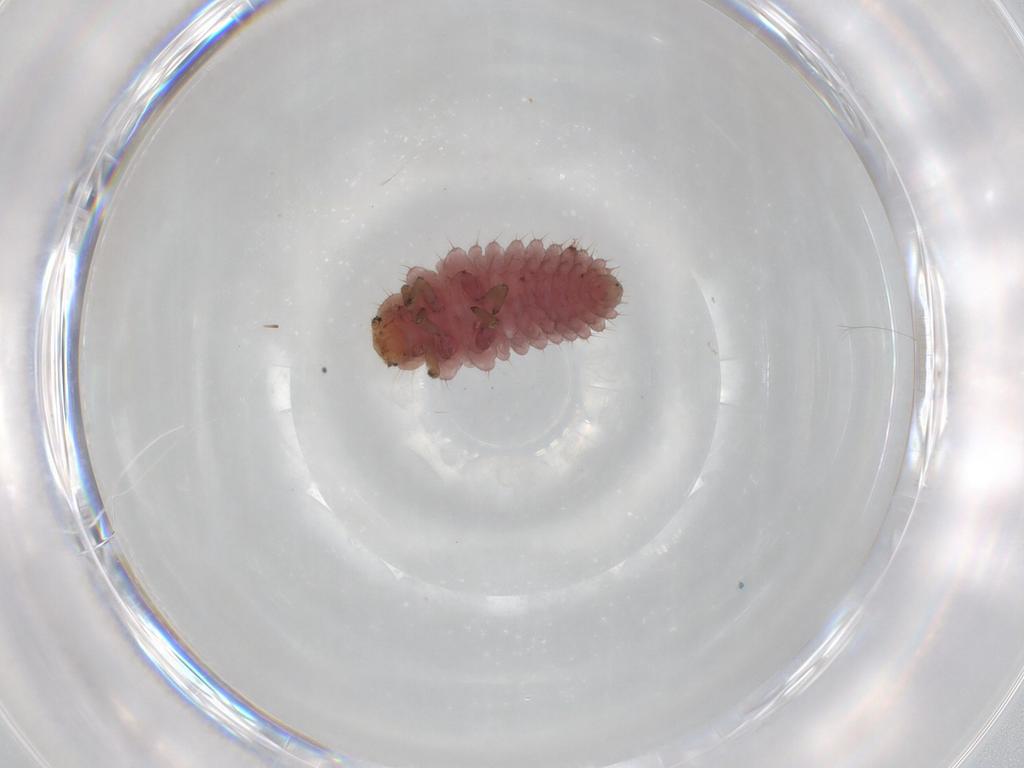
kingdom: Animalia
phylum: Arthropoda
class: Insecta
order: Coleoptera
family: Coccinellidae
